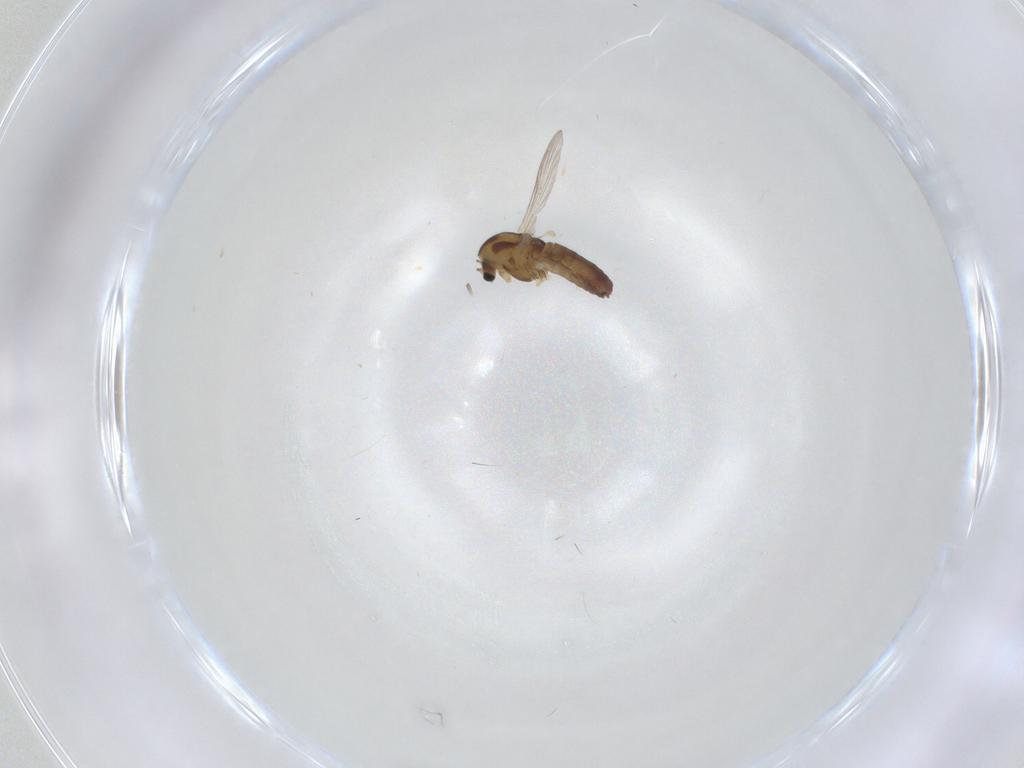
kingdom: Animalia
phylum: Arthropoda
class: Insecta
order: Diptera
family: Chironomidae
